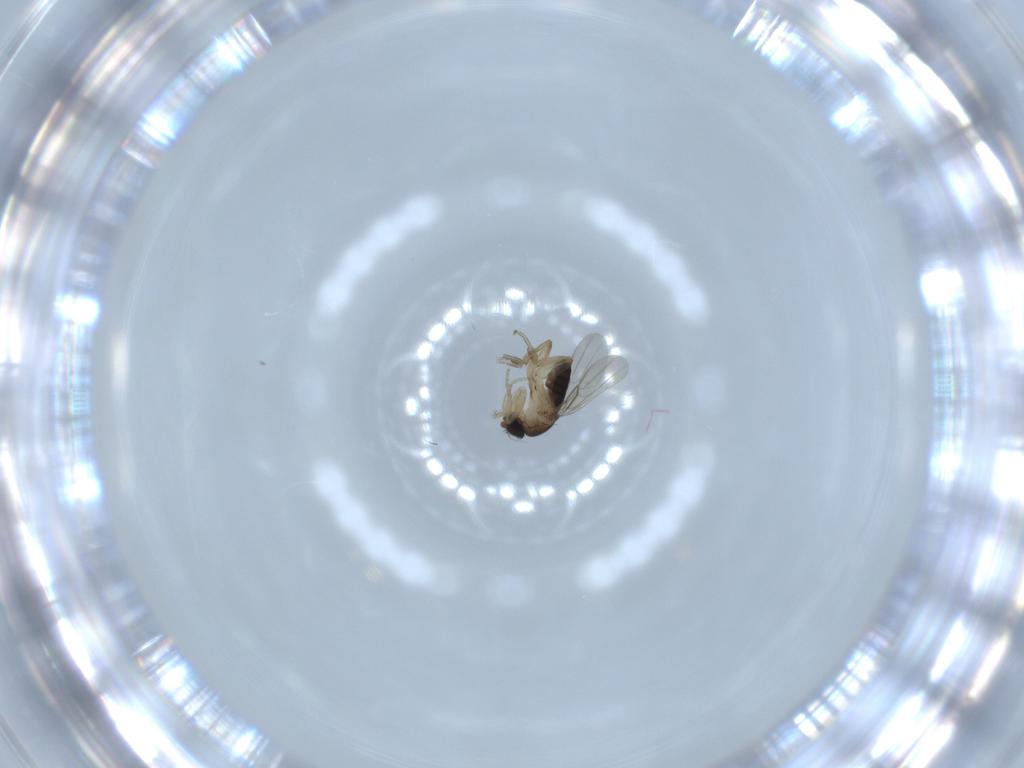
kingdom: Animalia
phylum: Arthropoda
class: Insecta
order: Diptera
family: Phoridae
